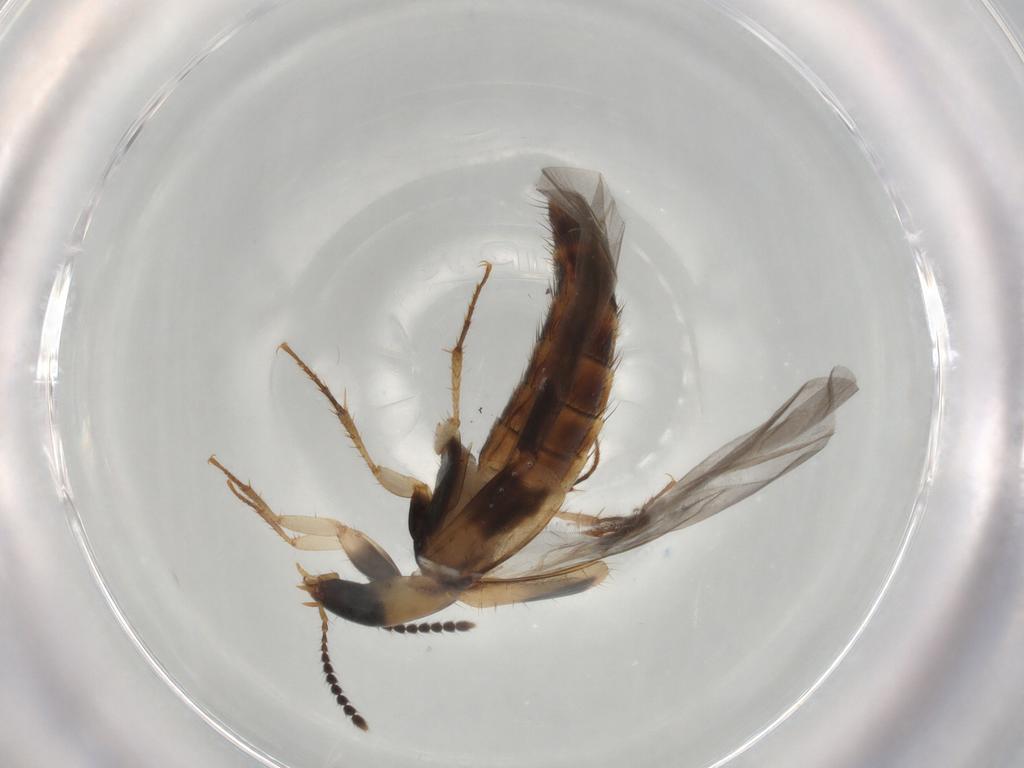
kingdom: Animalia
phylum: Arthropoda
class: Insecta
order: Coleoptera
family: Staphylinidae
